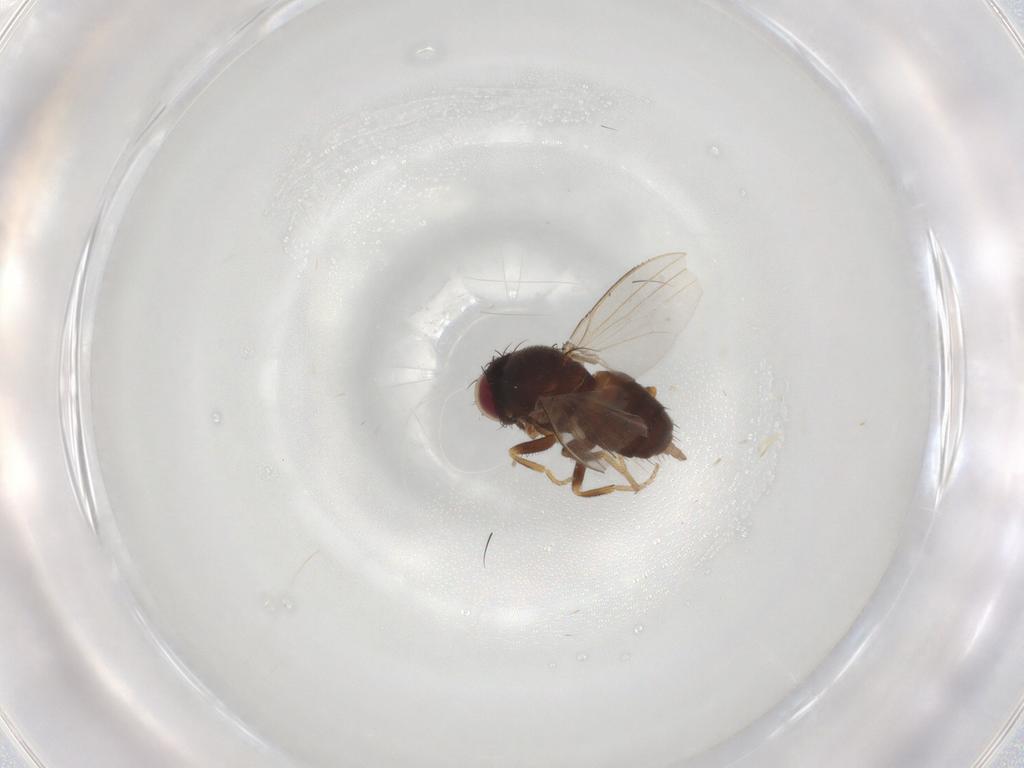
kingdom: Animalia
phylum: Arthropoda
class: Insecta
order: Diptera
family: Milichiidae
